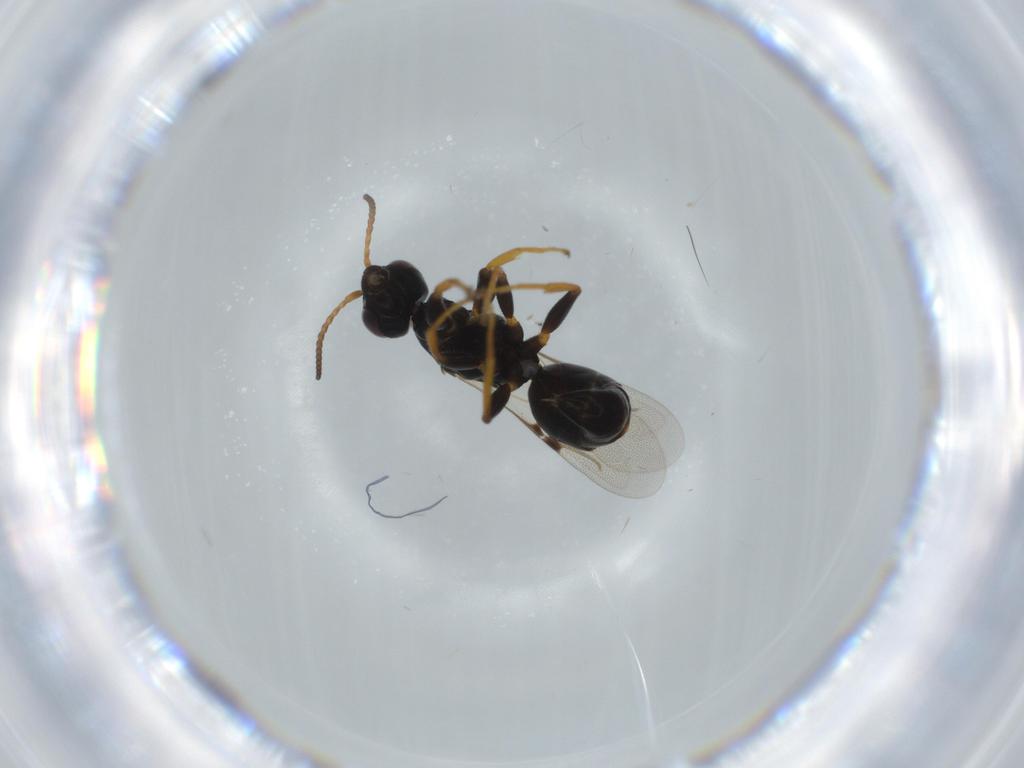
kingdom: Animalia
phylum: Arthropoda
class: Insecta
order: Hymenoptera
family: Bethylidae
